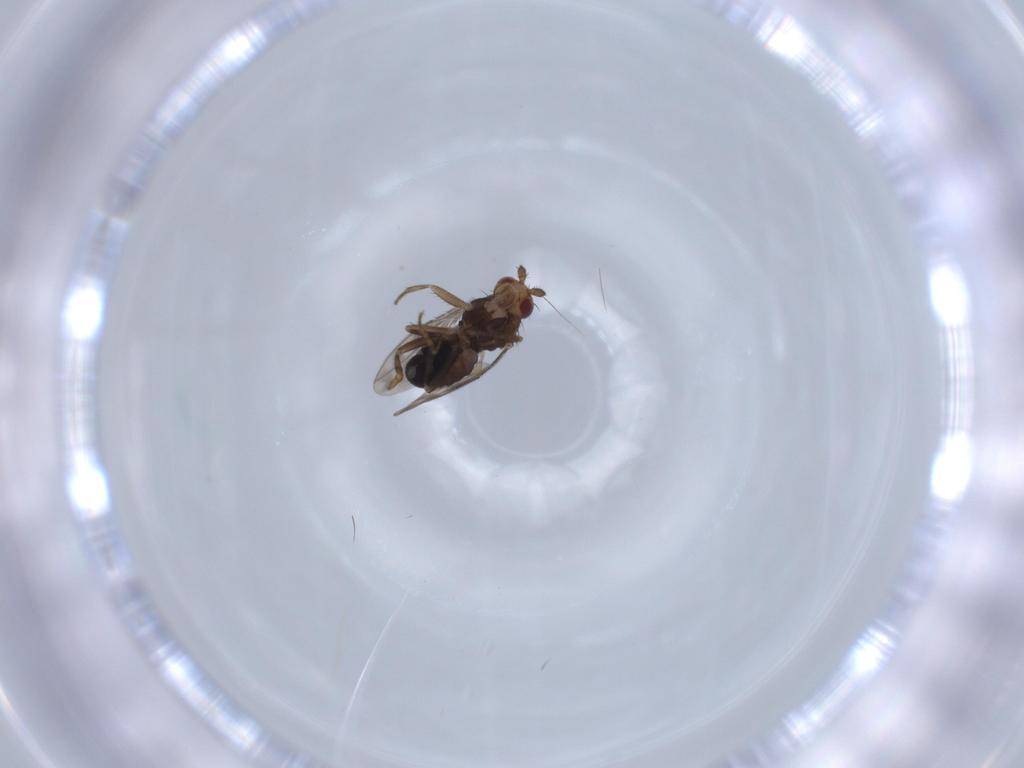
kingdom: Animalia
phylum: Arthropoda
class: Insecta
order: Diptera
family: Sphaeroceridae
